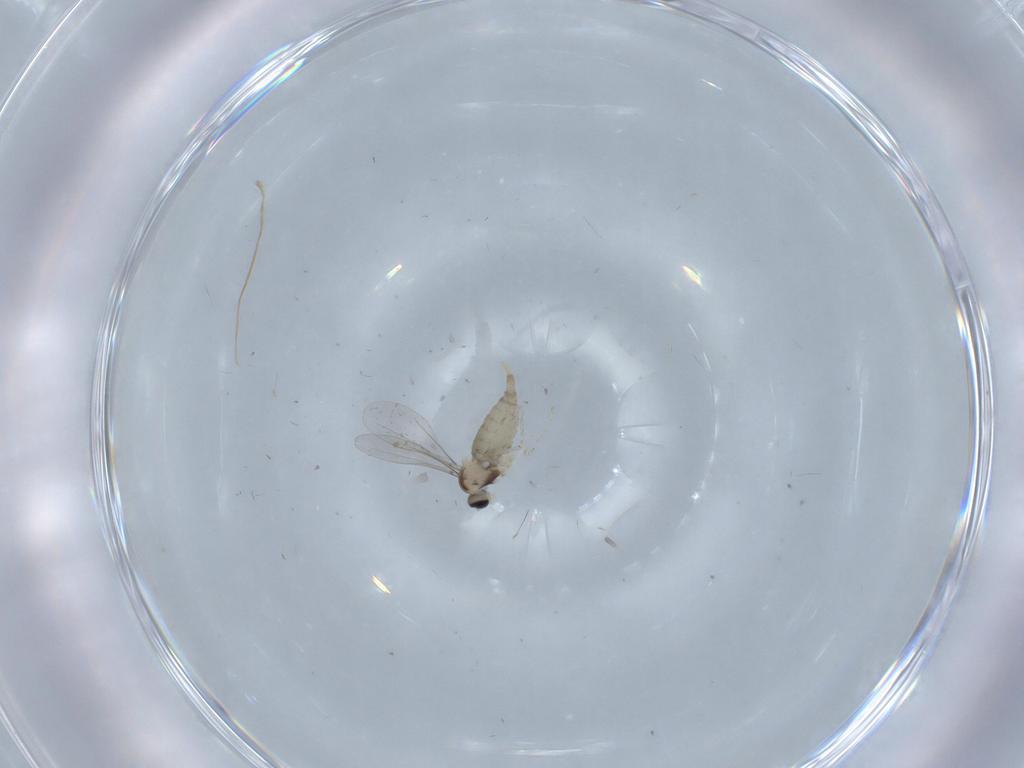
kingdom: Animalia
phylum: Arthropoda
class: Insecta
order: Diptera
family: Cecidomyiidae
